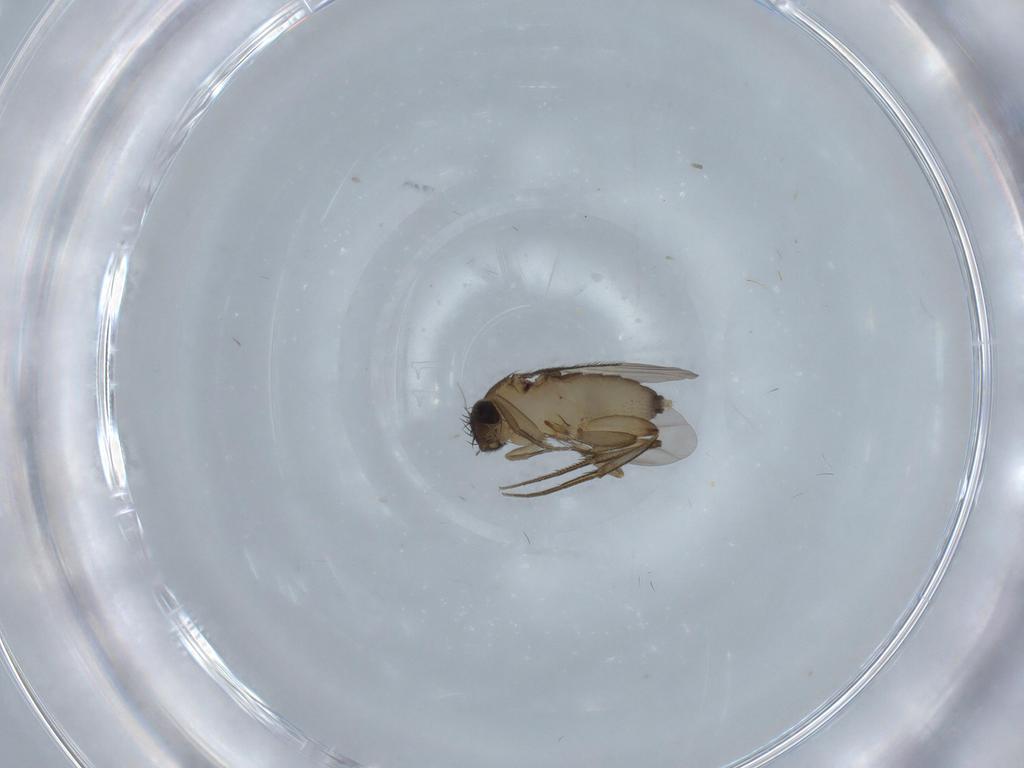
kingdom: Animalia
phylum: Arthropoda
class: Insecta
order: Diptera
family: Phoridae
